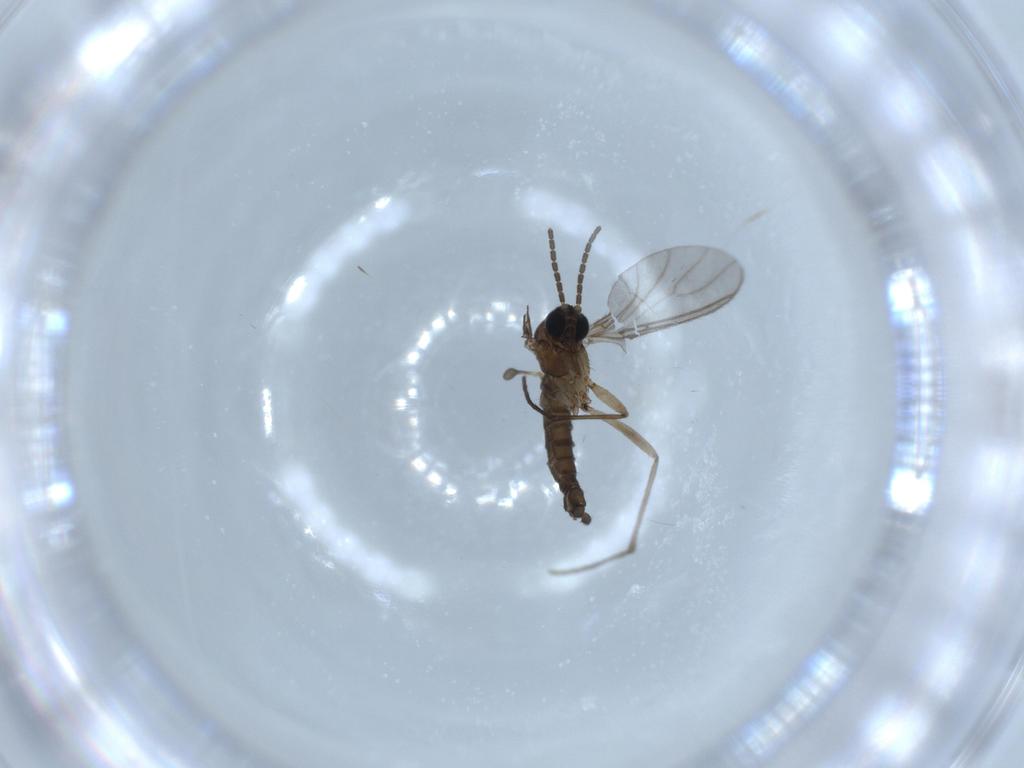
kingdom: Animalia
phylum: Arthropoda
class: Insecta
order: Diptera
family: Sciaridae
